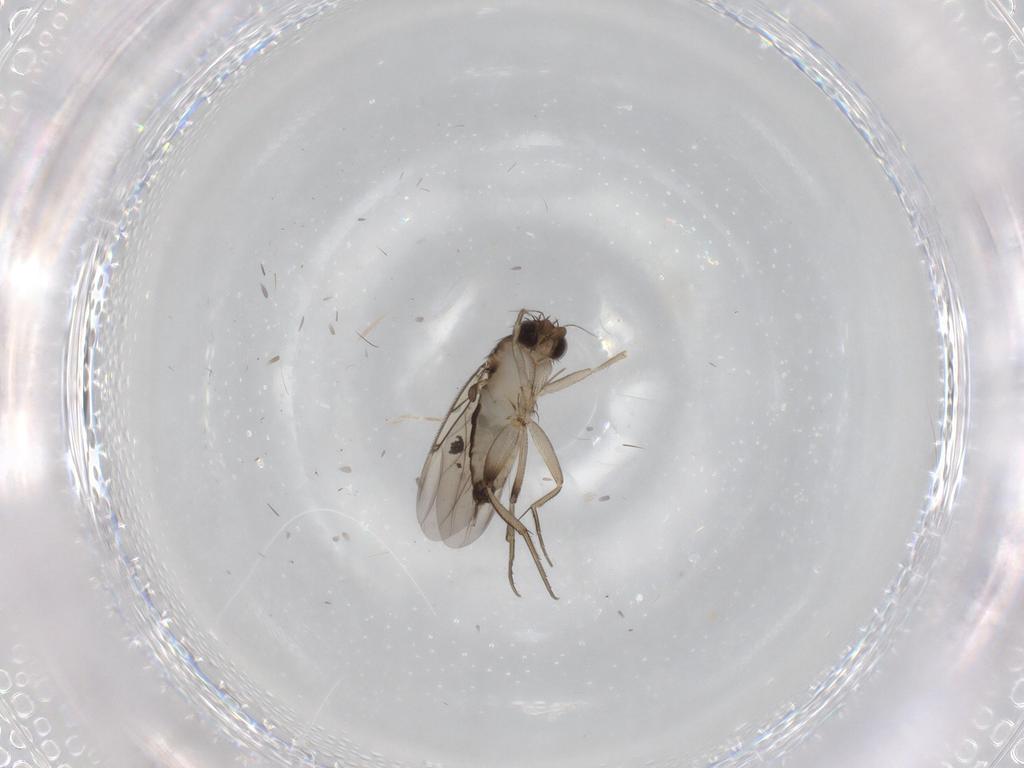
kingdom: Animalia
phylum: Arthropoda
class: Insecta
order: Diptera
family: Phoridae
